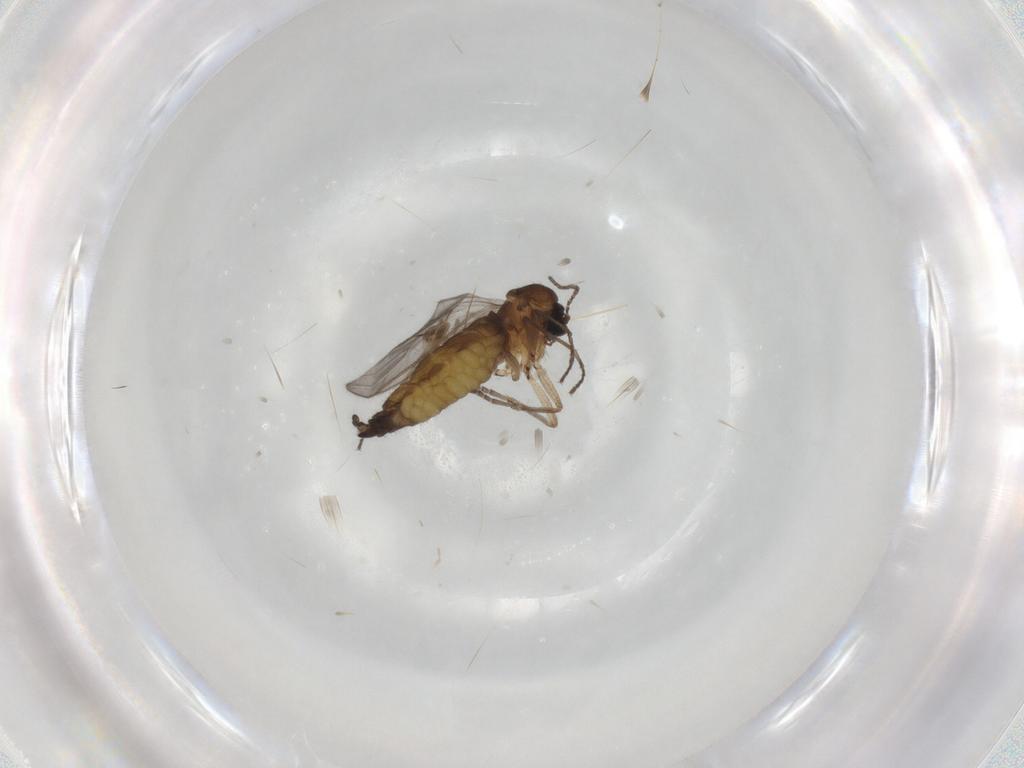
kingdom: Animalia
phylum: Arthropoda
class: Insecta
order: Diptera
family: Sciaridae
